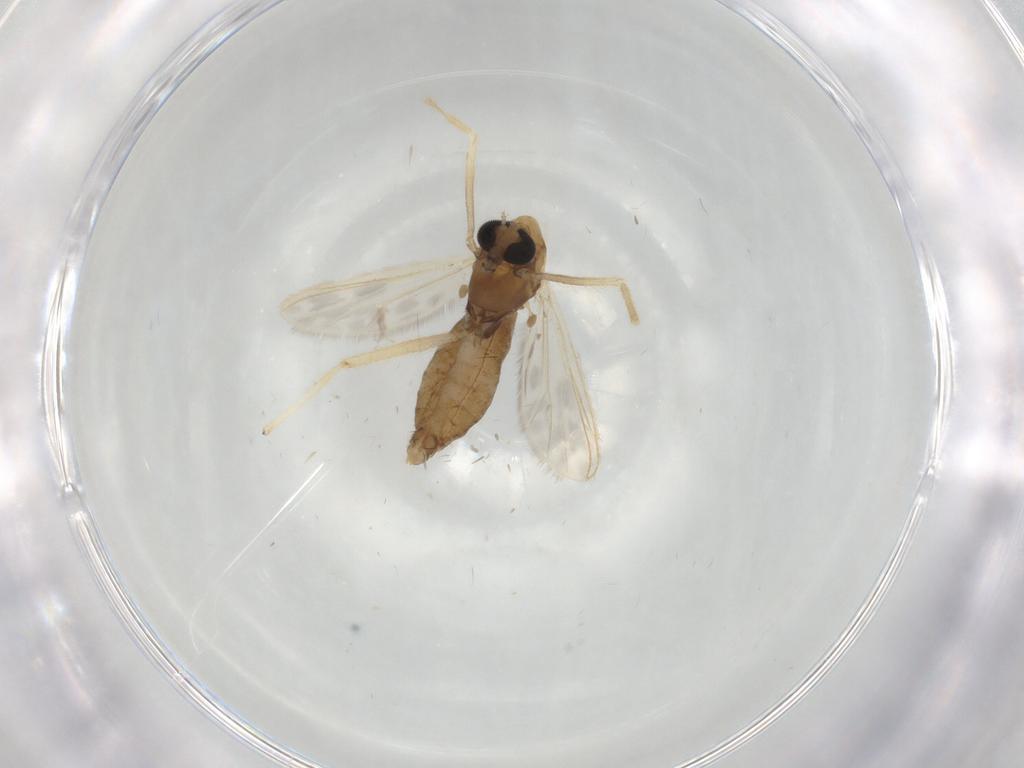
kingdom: Animalia
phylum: Arthropoda
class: Insecta
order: Diptera
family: Chironomidae
